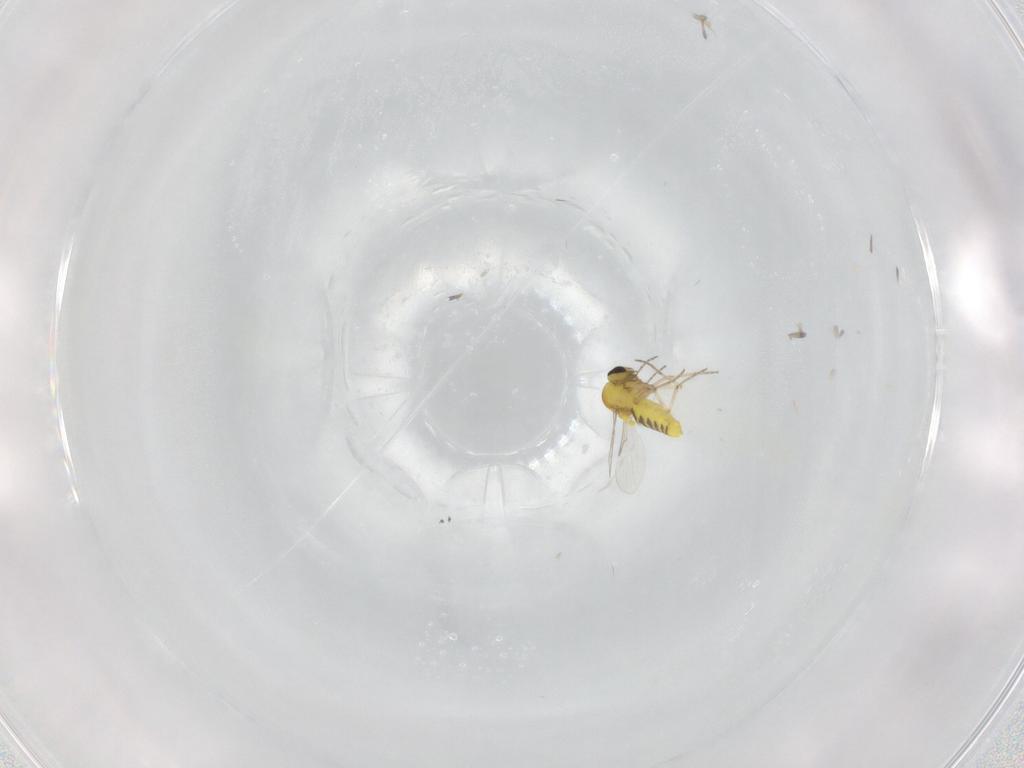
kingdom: Animalia
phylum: Arthropoda
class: Insecta
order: Diptera
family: Ceratopogonidae
